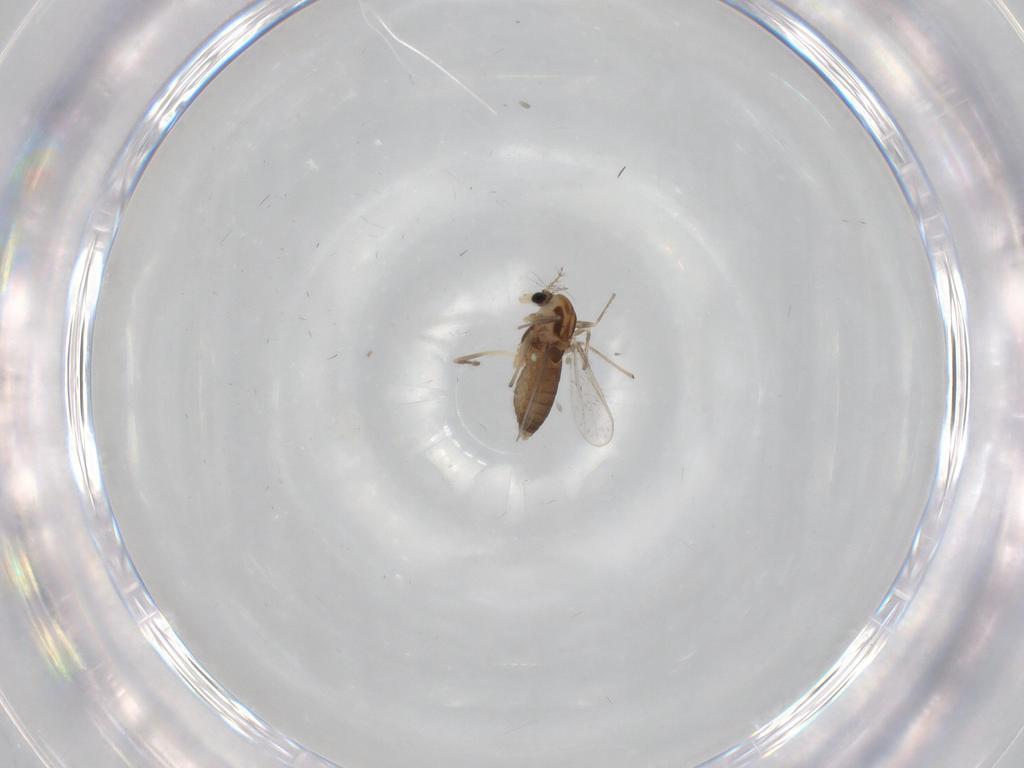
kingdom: Animalia
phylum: Arthropoda
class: Insecta
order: Diptera
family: Chironomidae
